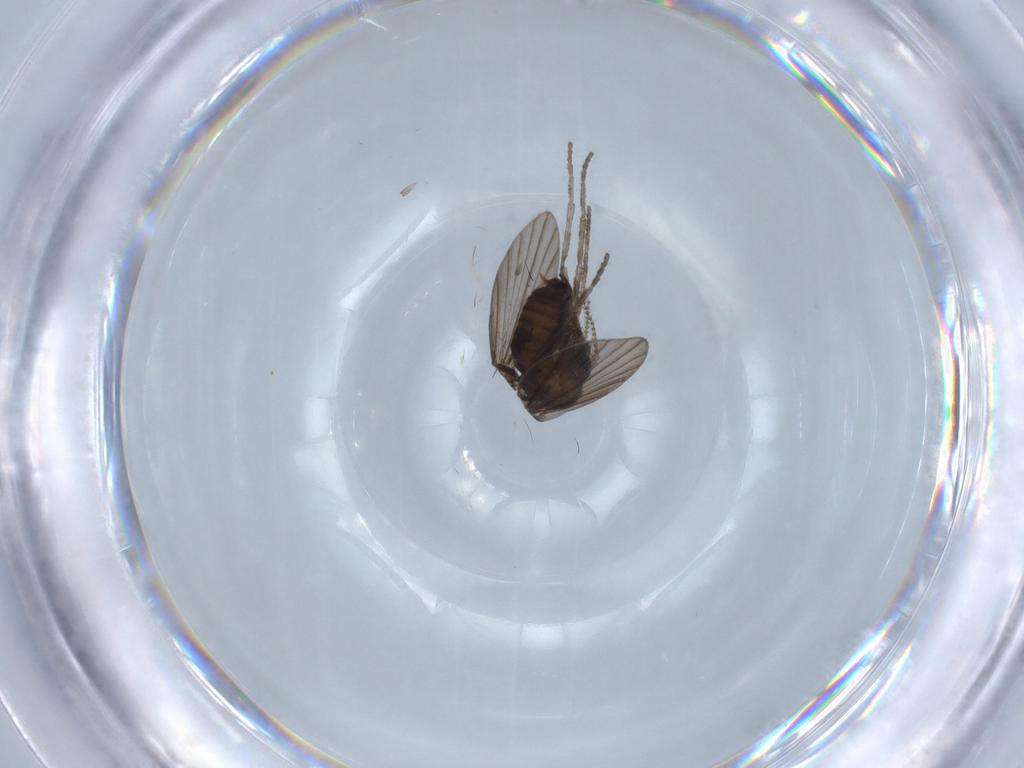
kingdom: Animalia
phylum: Arthropoda
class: Insecta
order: Diptera
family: Psychodidae
